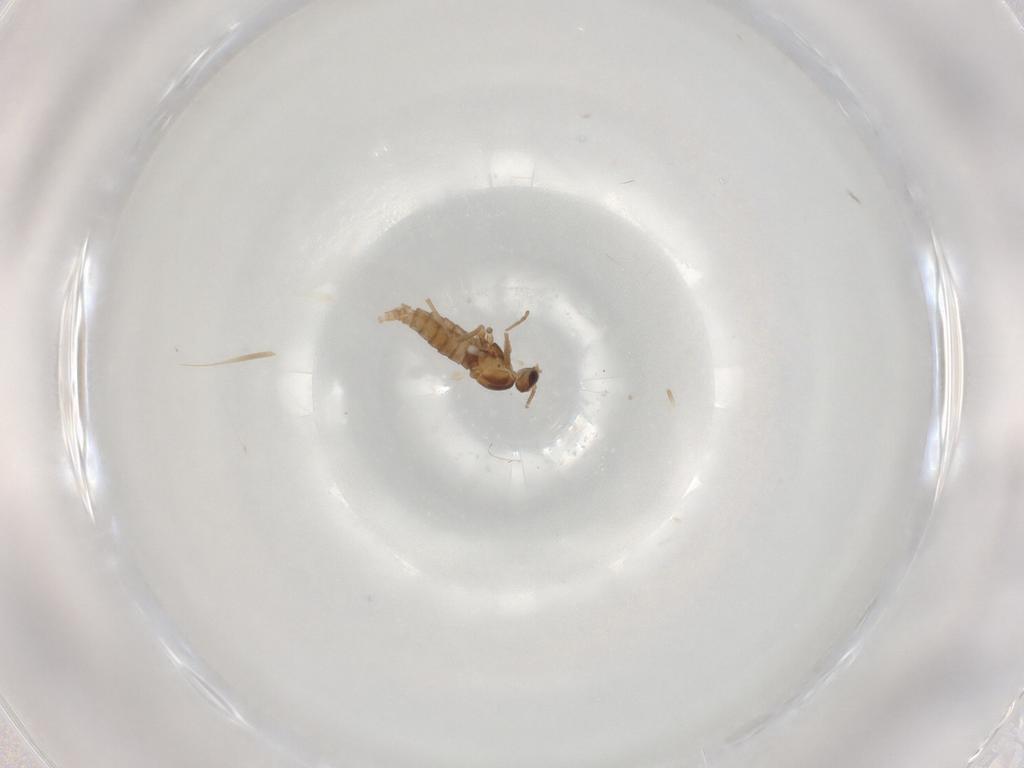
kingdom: Animalia
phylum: Arthropoda
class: Insecta
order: Diptera
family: Cecidomyiidae
